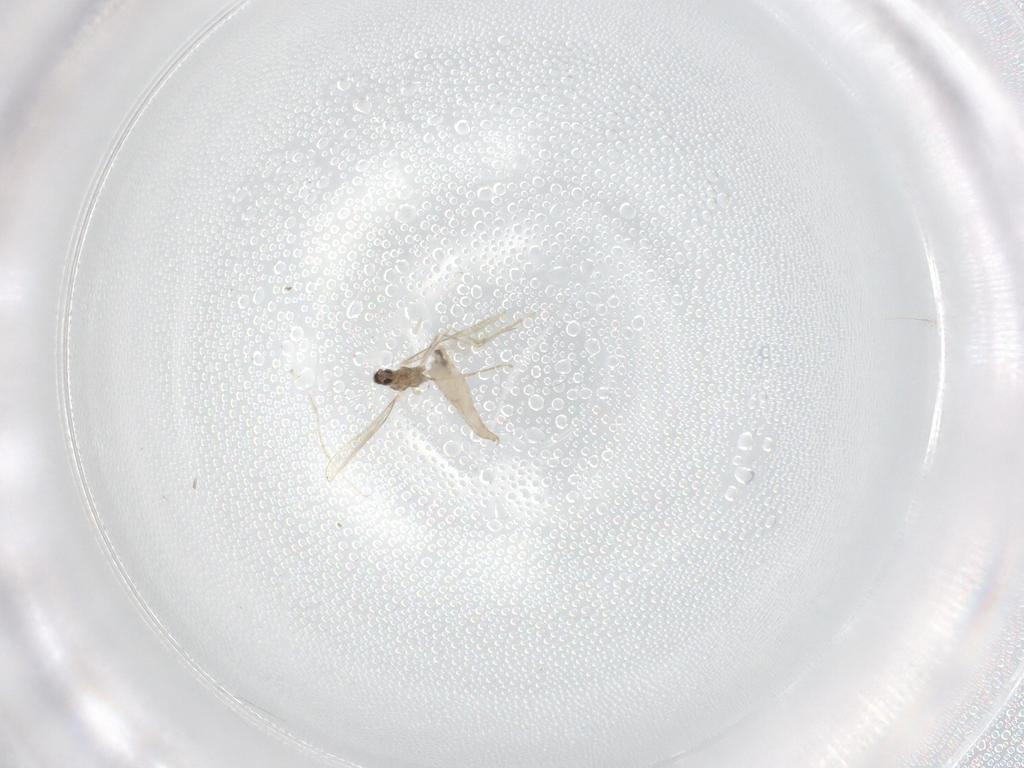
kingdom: Animalia
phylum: Arthropoda
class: Insecta
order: Diptera
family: Cecidomyiidae
